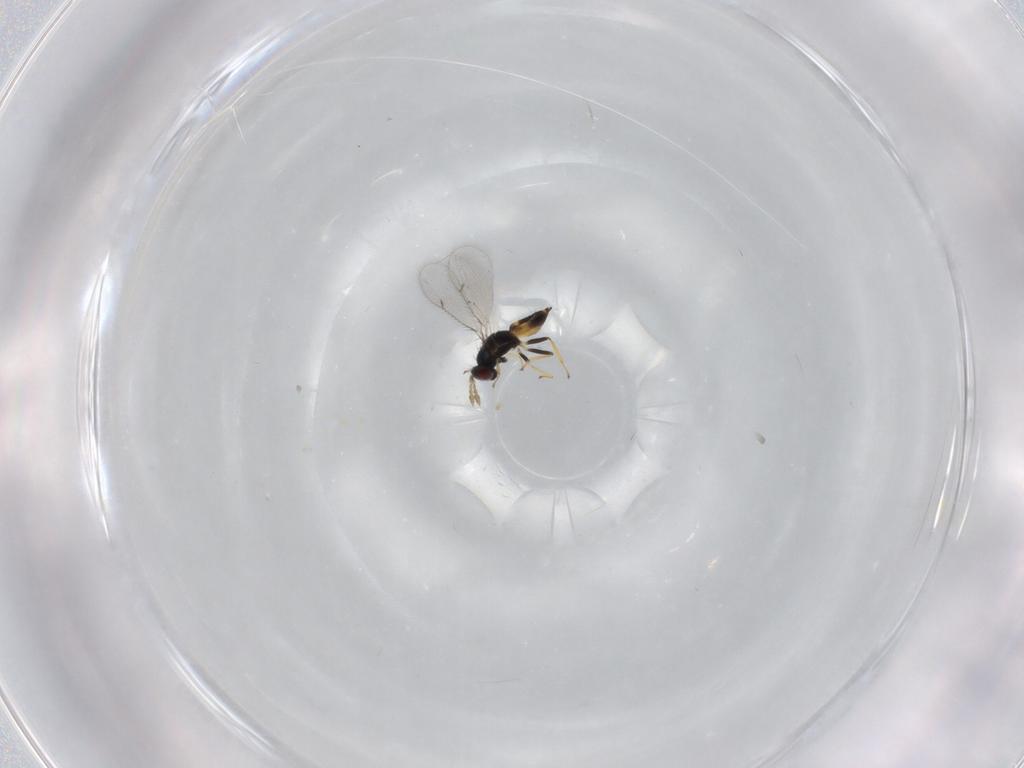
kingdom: Animalia
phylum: Arthropoda
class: Insecta
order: Hymenoptera
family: Eulophidae
